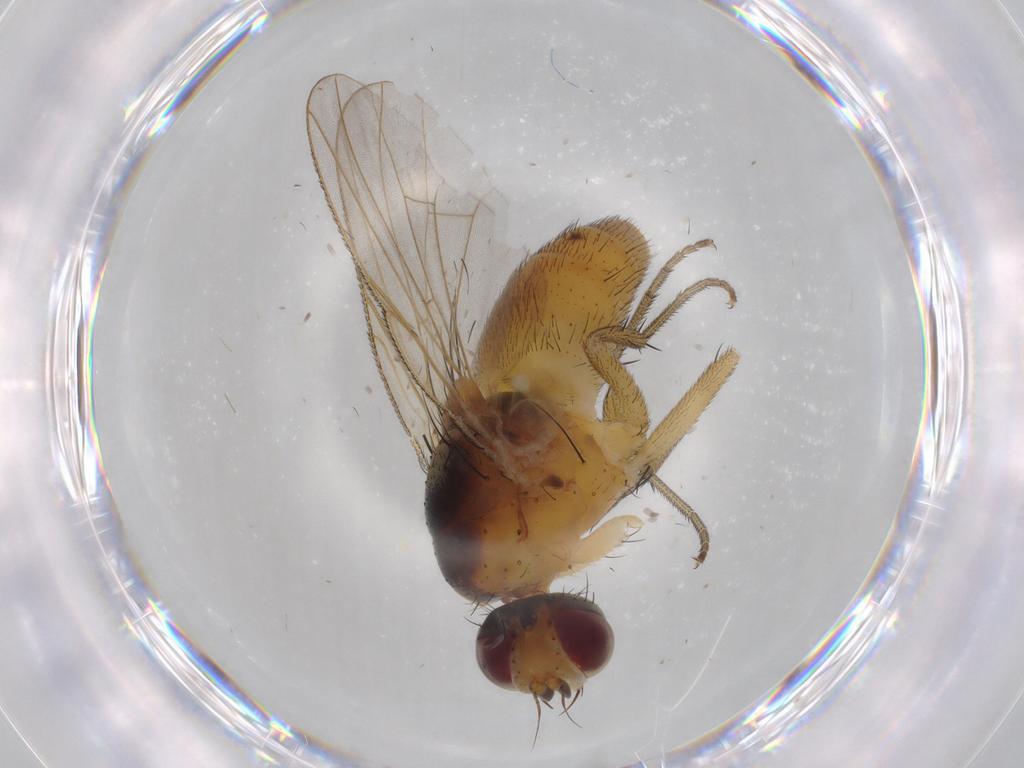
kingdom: Animalia
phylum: Arthropoda
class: Insecta
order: Diptera
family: Muscidae
